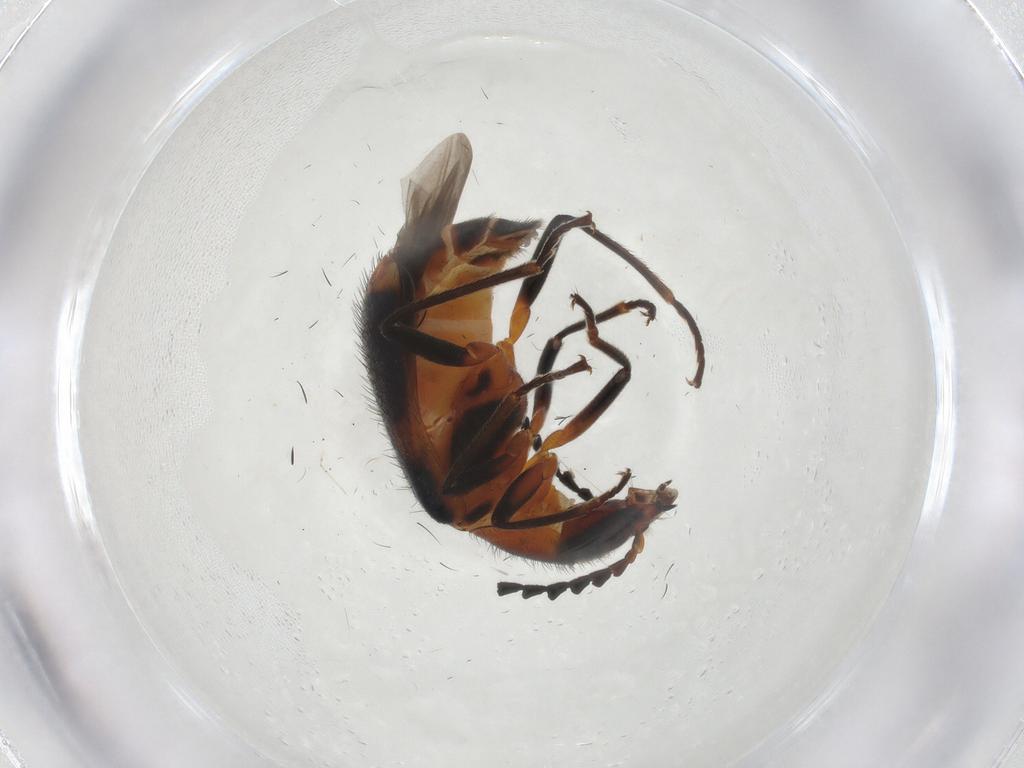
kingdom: Animalia
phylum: Arthropoda
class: Insecta
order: Coleoptera
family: Melyridae
